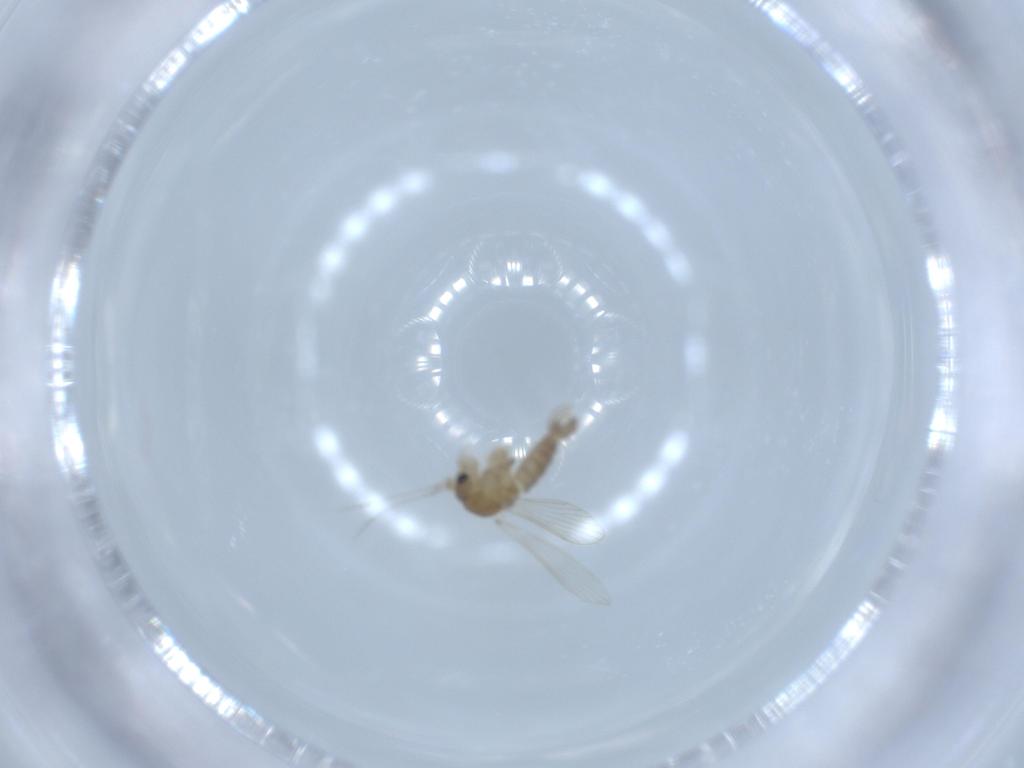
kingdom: Animalia
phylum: Arthropoda
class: Insecta
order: Diptera
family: Psychodidae
